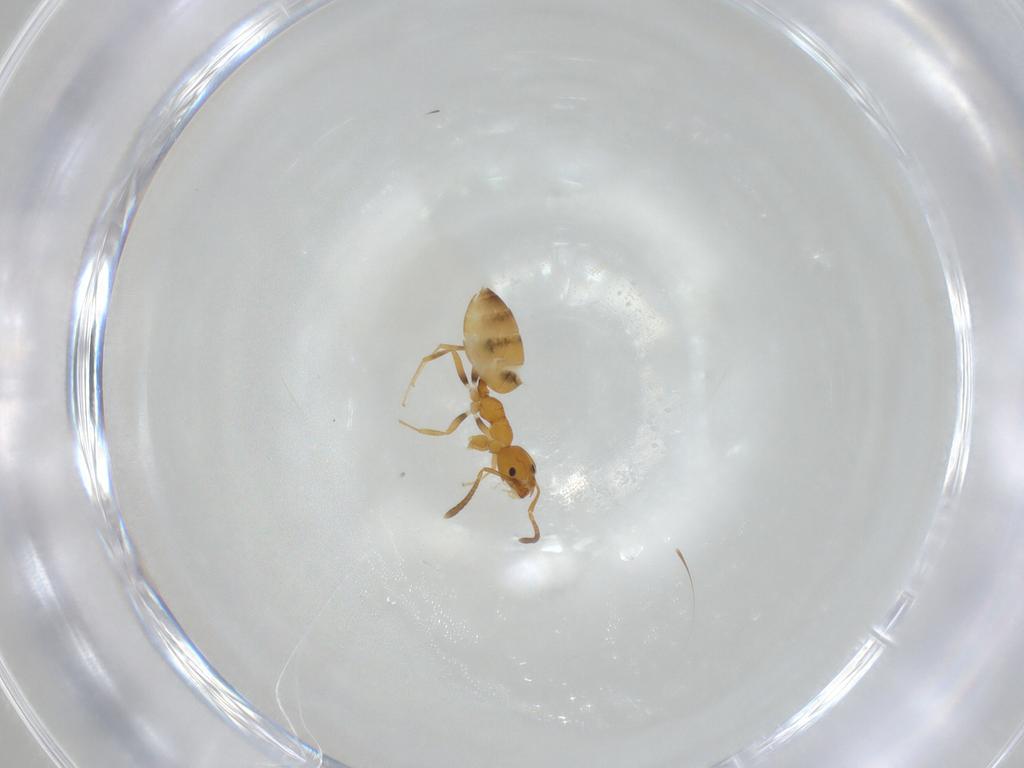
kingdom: Animalia
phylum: Arthropoda
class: Insecta
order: Hymenoptera
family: Formicidae
